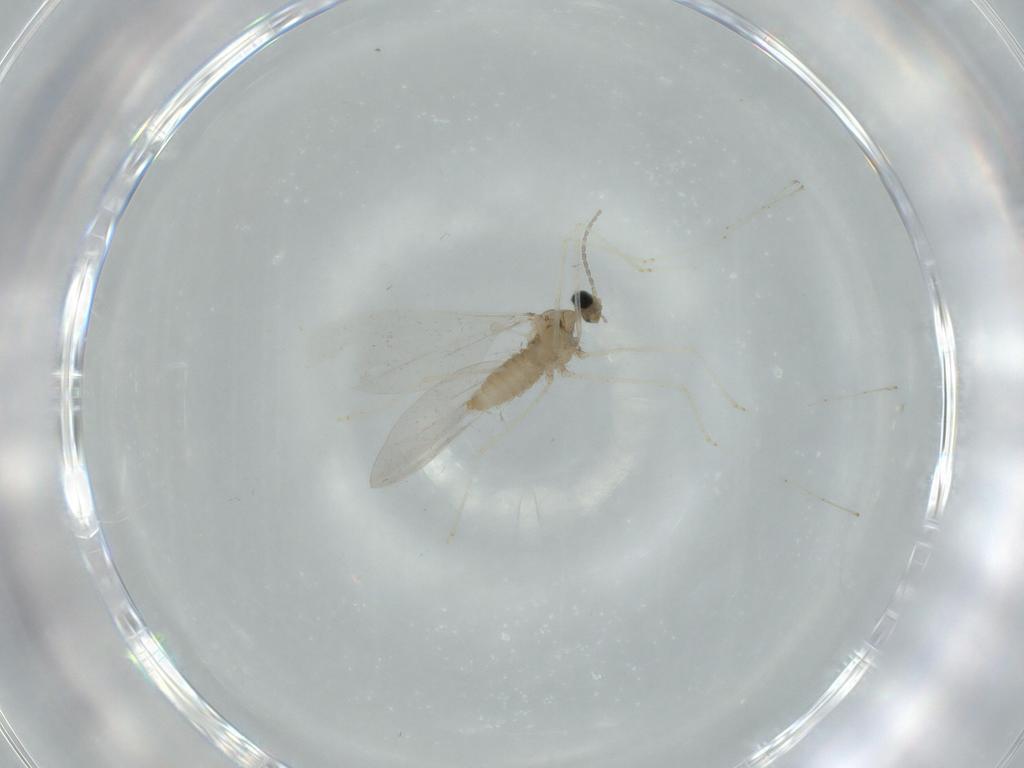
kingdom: Animalia
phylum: Arthropoda
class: Insecta
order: Diptera
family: Cecidomyiidae
